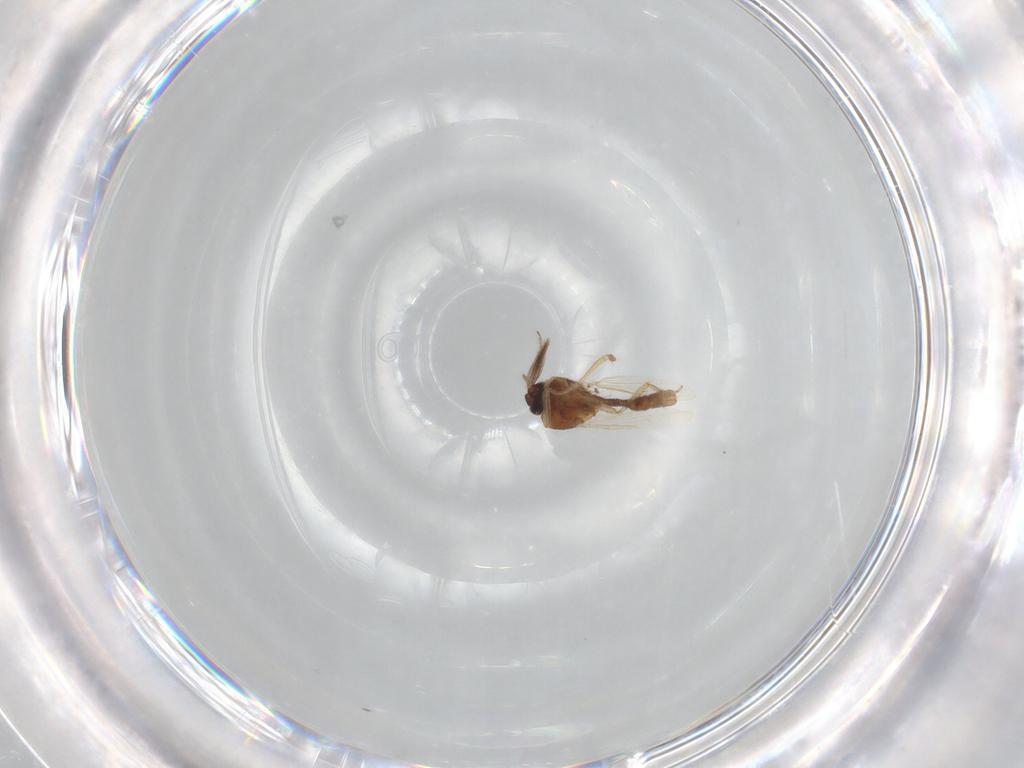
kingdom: Animalia
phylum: Arthropoda
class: Insecta
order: Diptera
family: Ceratopogonidae
